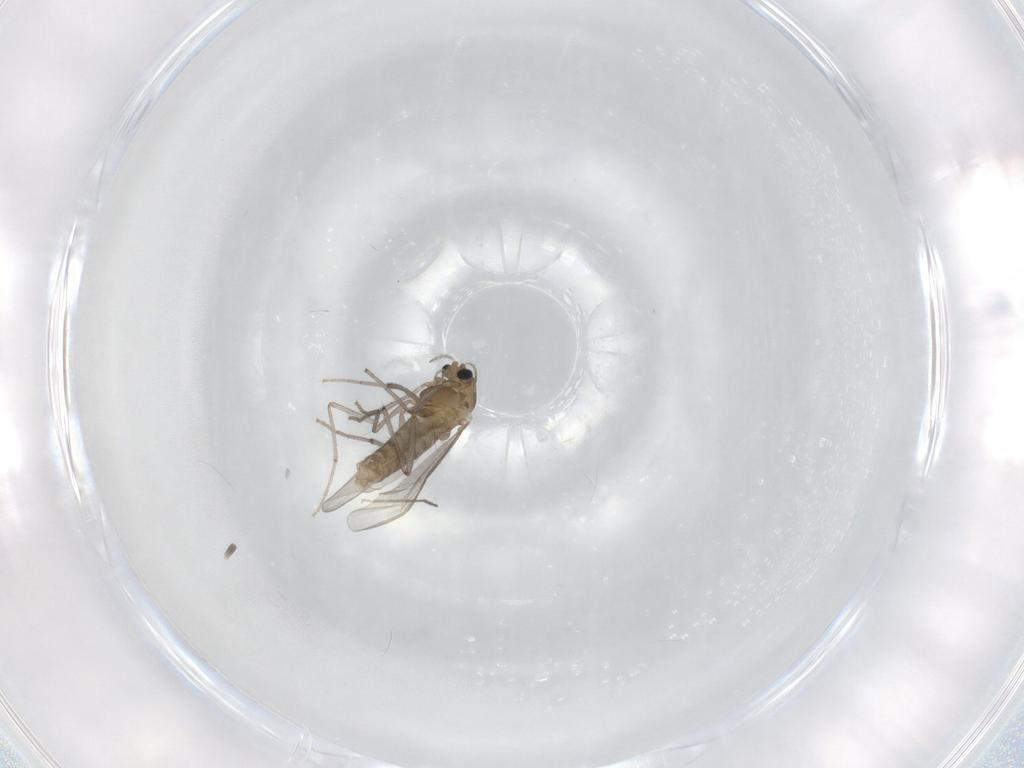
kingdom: Animalia
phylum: Arthropoda
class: Insecta
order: Diptera
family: Chironomidae
